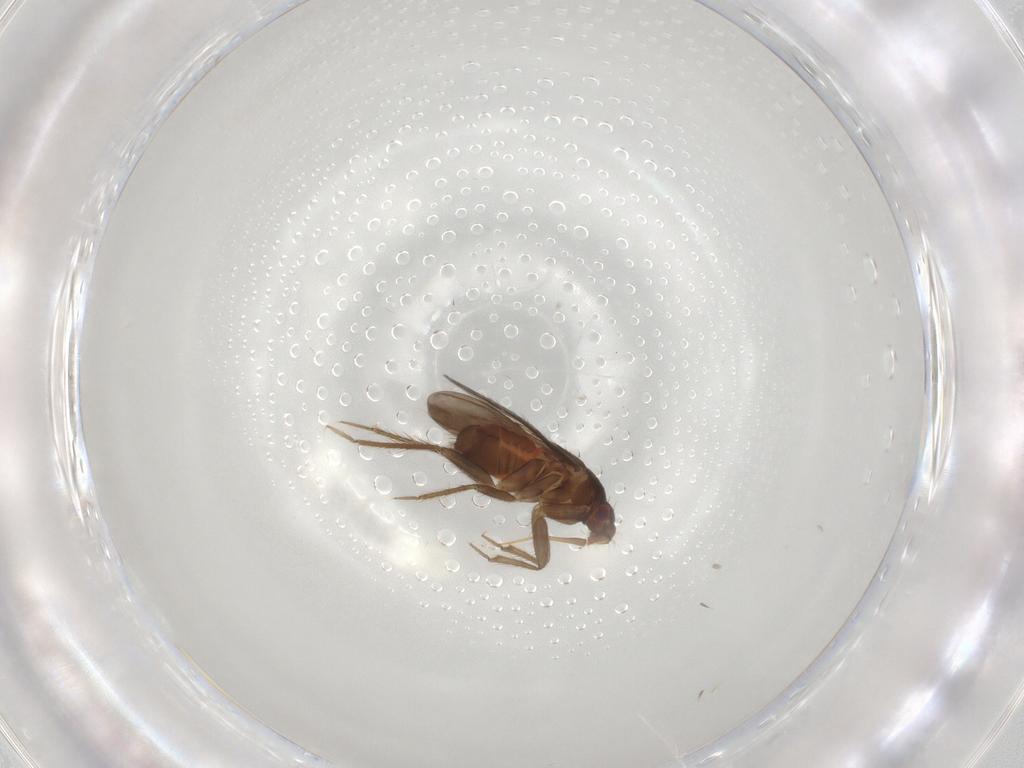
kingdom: Animalia
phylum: Arthropoda
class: Insecta
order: Hemiptera
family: Ceratocombidae
